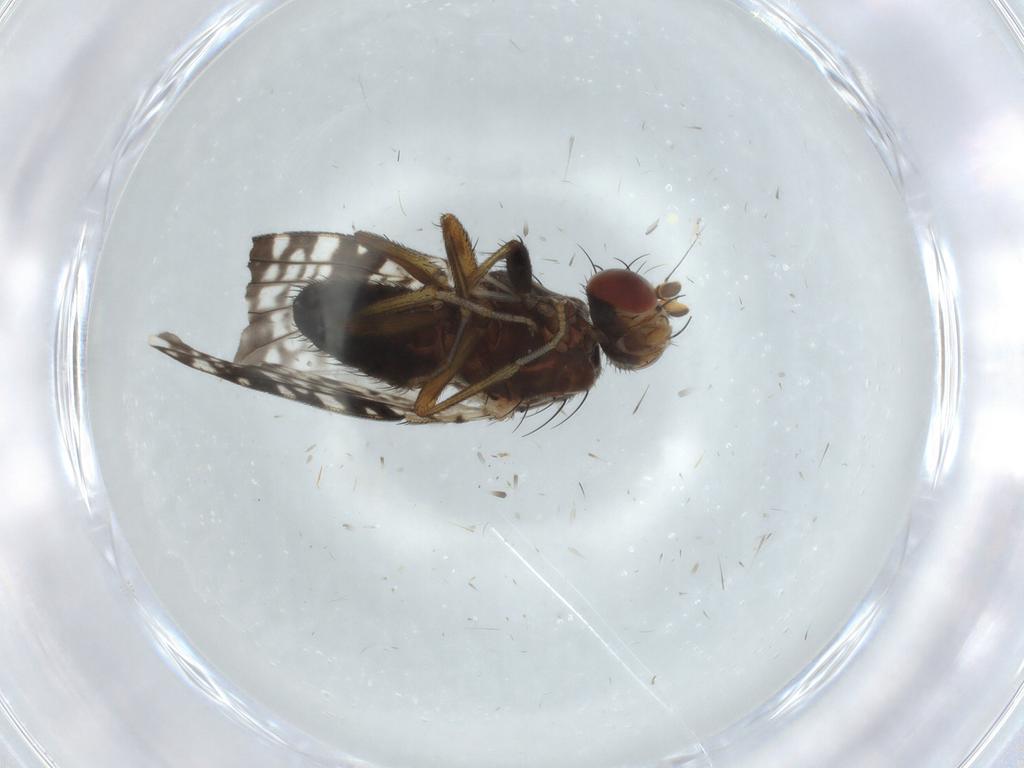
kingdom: Animalia
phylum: Arthropoda
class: Insecta
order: Diptera
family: Tephritidae
